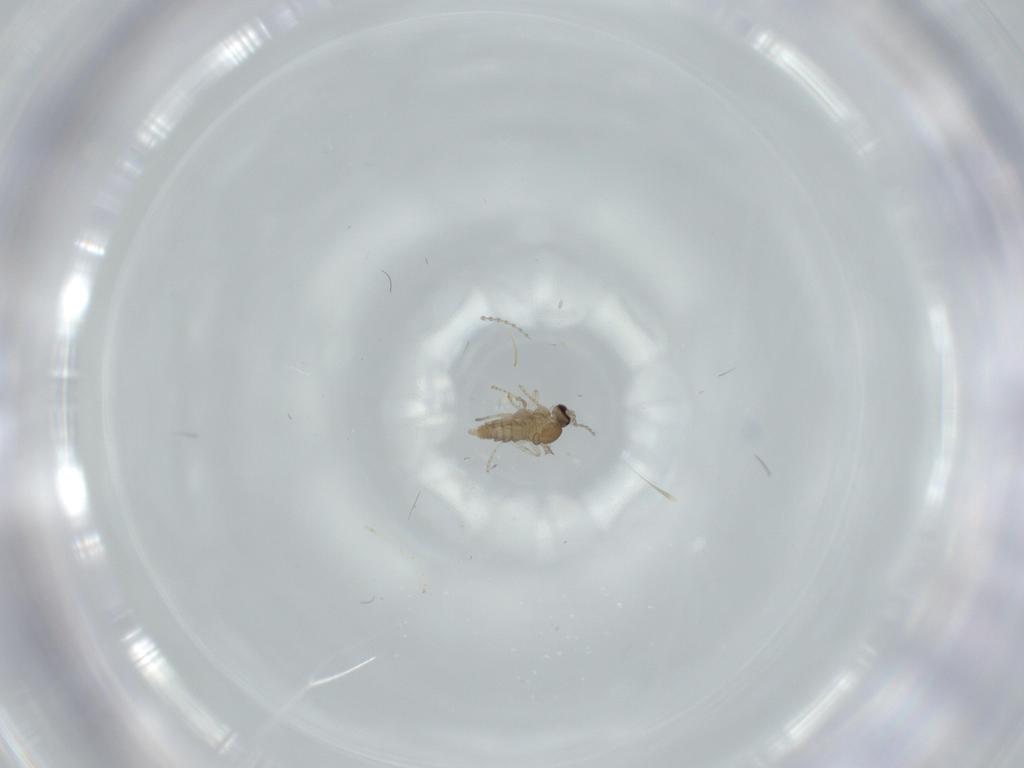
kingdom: Animalia
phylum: Arthropoda
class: Insecta
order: Diptera
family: Cecidomyiidae
